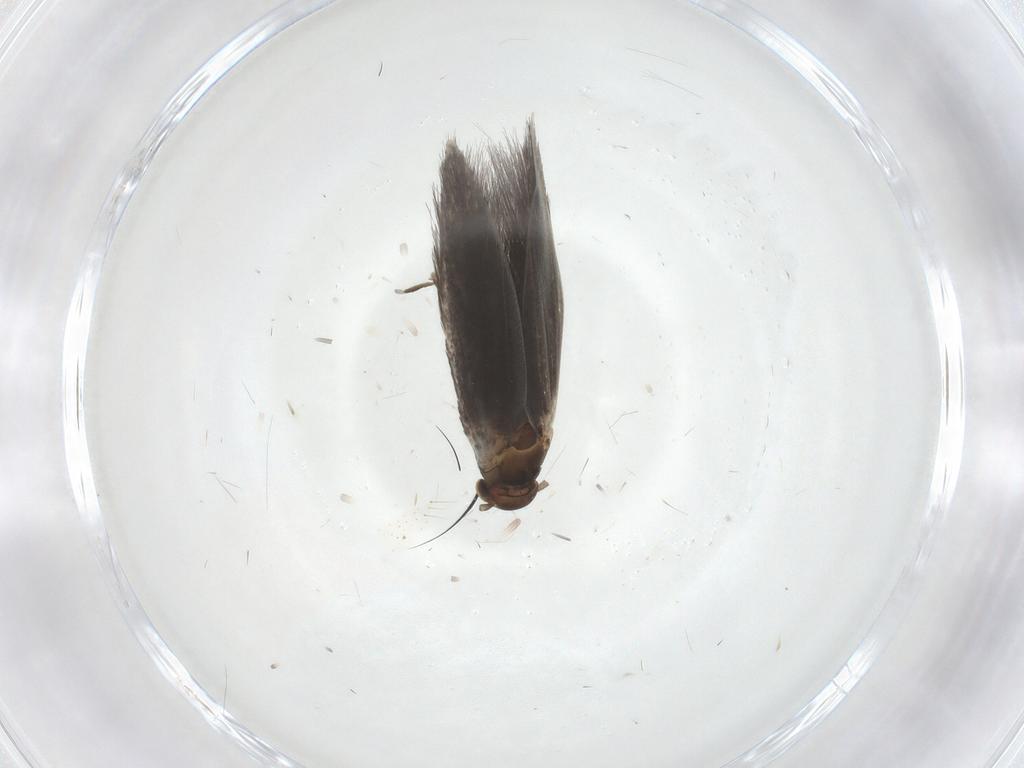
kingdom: Animalia
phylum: Arthropoda
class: Insecta
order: Lepidoptera
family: Elachistidae
